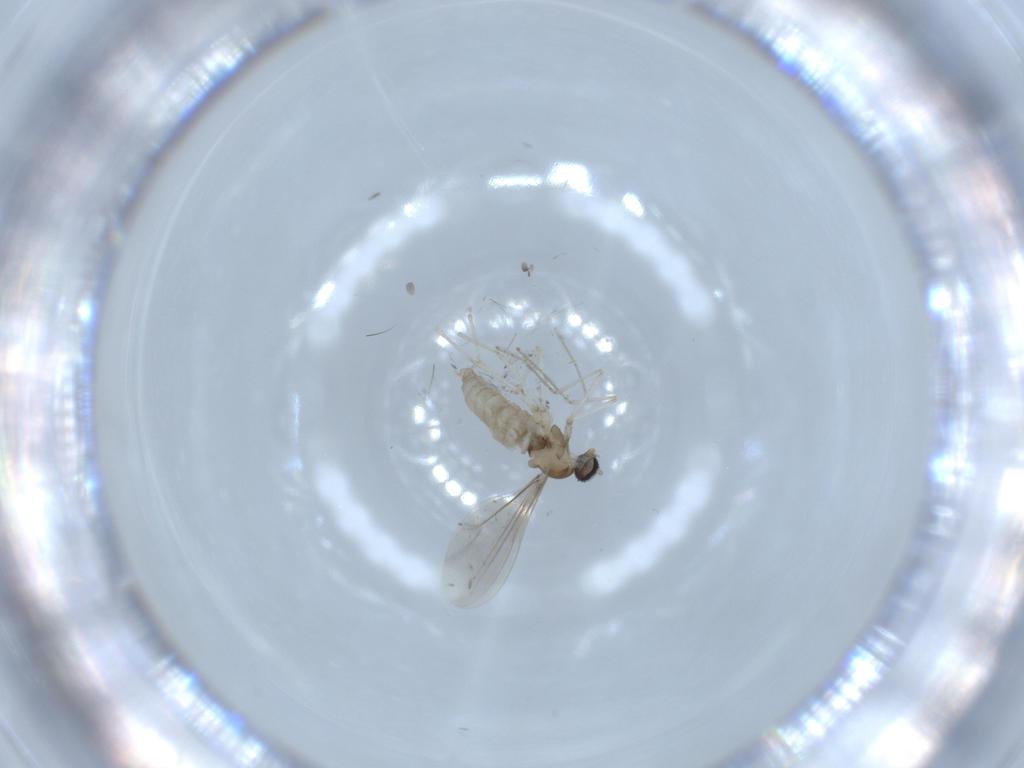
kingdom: Animalia
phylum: Arthropoda
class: Insecta
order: Diptera
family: Cecidomyiidae
